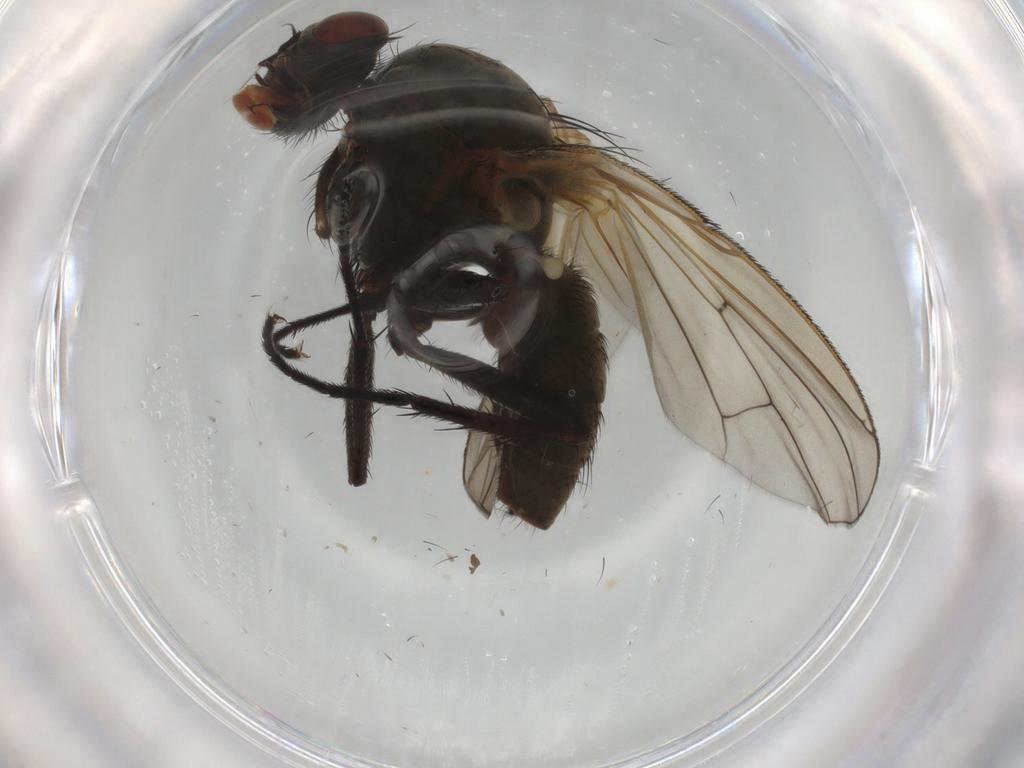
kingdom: Animalia
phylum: Arthropoda
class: Insecta
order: Diptera
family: Anthomyiidae
